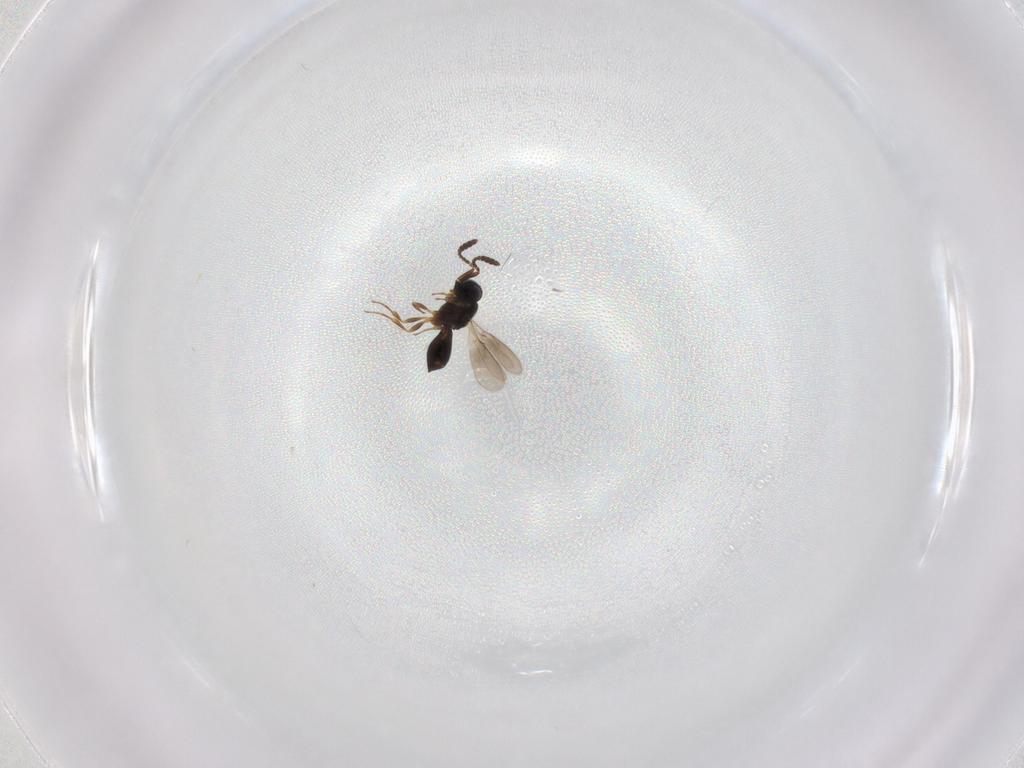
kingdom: Animalia
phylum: Arthropoda
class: Insecta
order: Hymenoptera
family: Scelionidae
